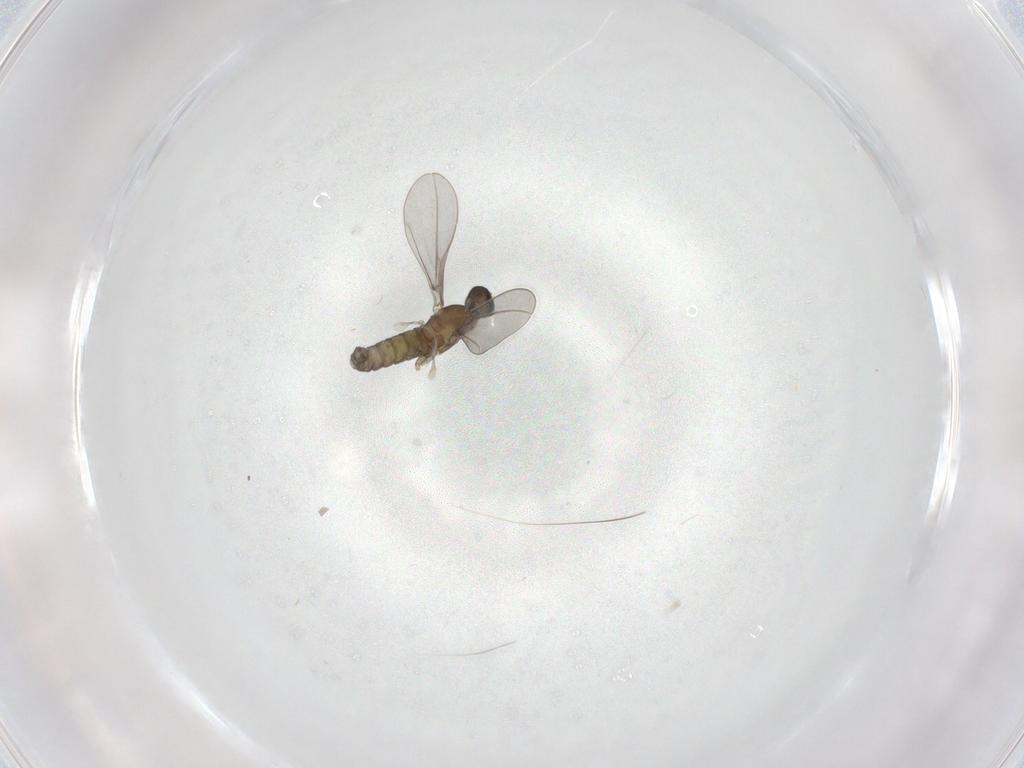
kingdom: Animalia
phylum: Arthropoda
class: Insecta
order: Diptera
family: Cecidomyiidae
